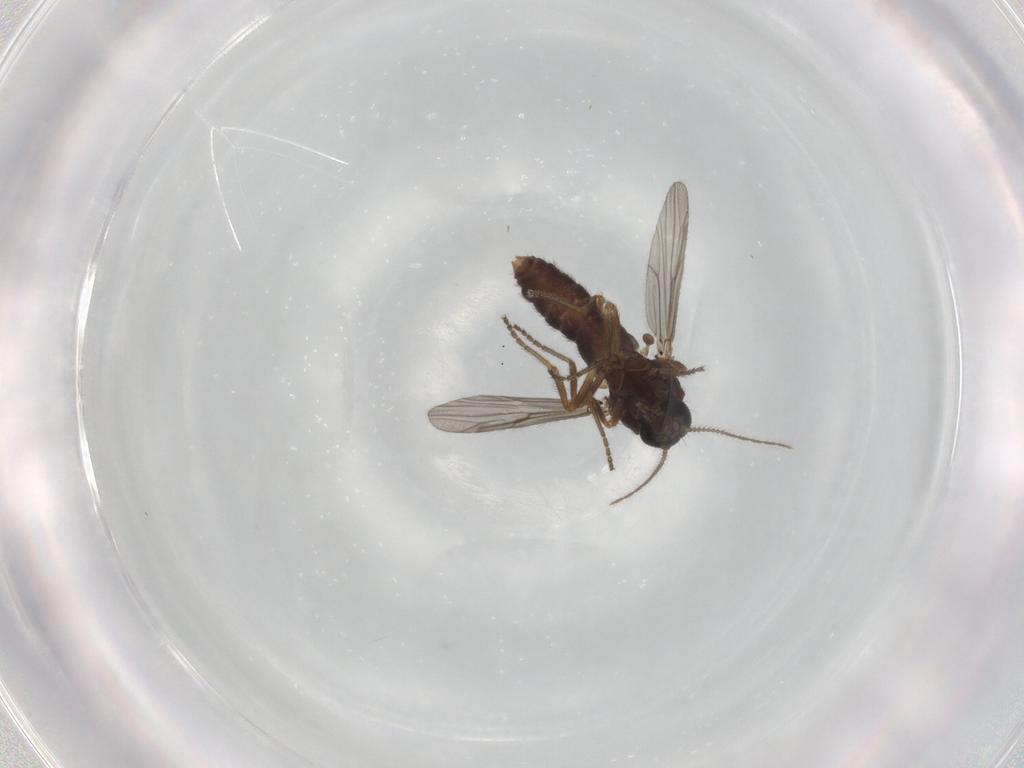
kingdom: Animalia
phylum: Arthropoda
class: Insecta
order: Diptera
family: Ceratopogonidae
